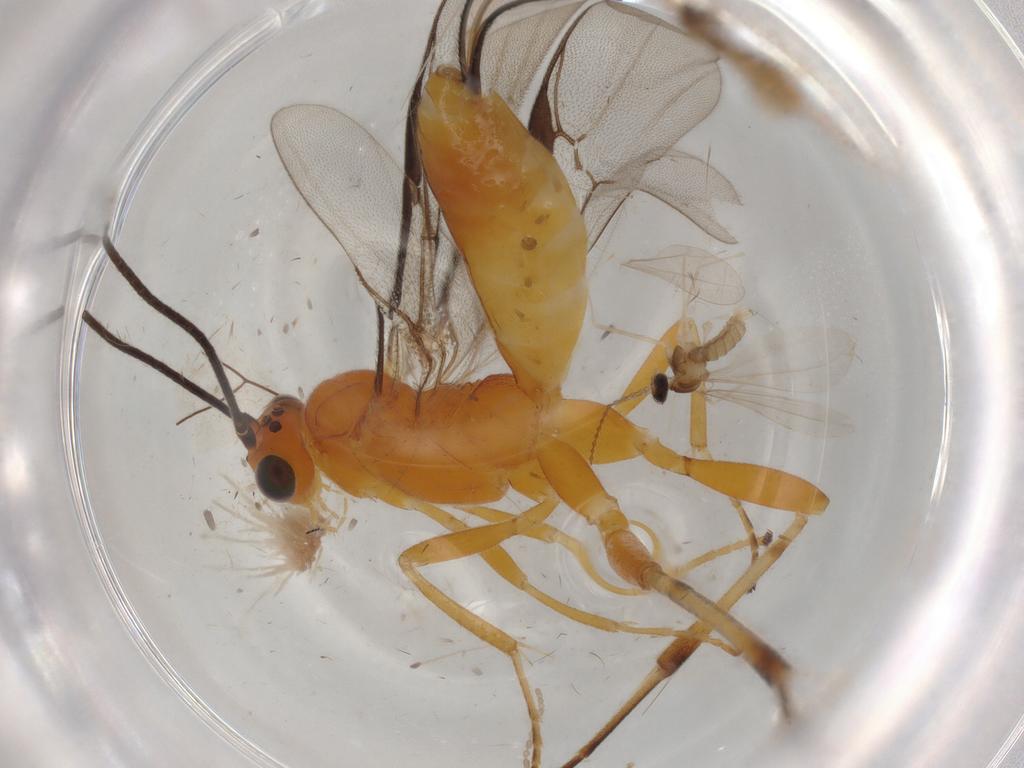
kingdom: Animalia
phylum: Arthropoda
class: Insecta
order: Diptera
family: Cecidomyiidae
